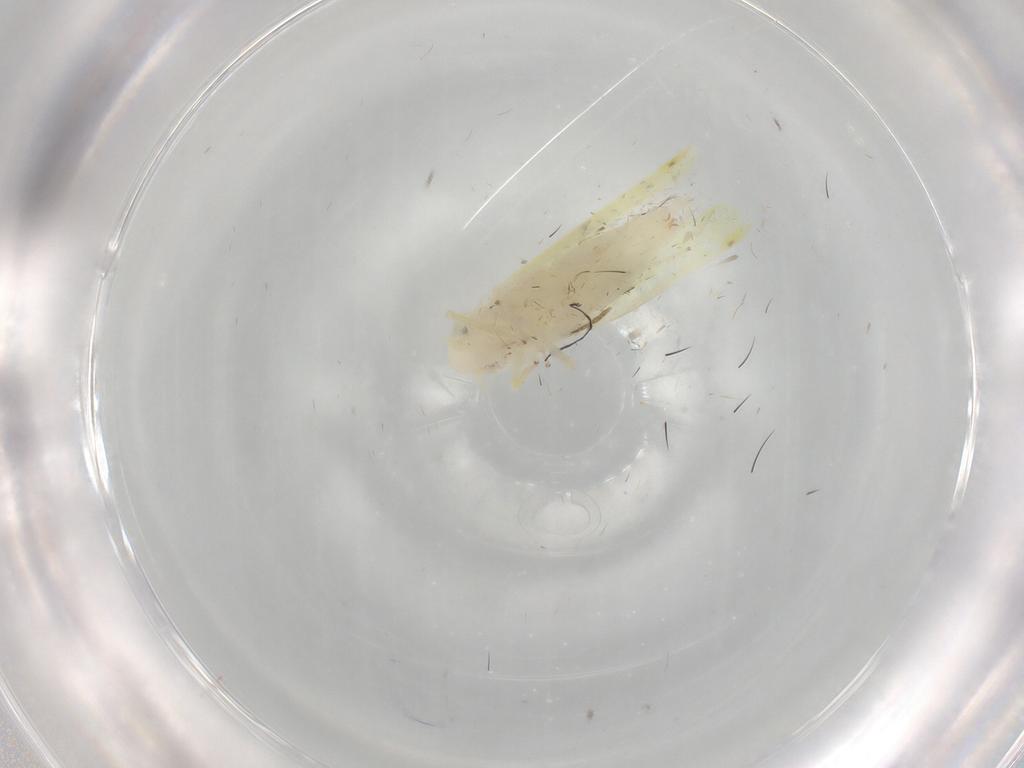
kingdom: Animalia
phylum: Arthropoda
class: Insecta
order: Hemiptera
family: Cicadellidae
